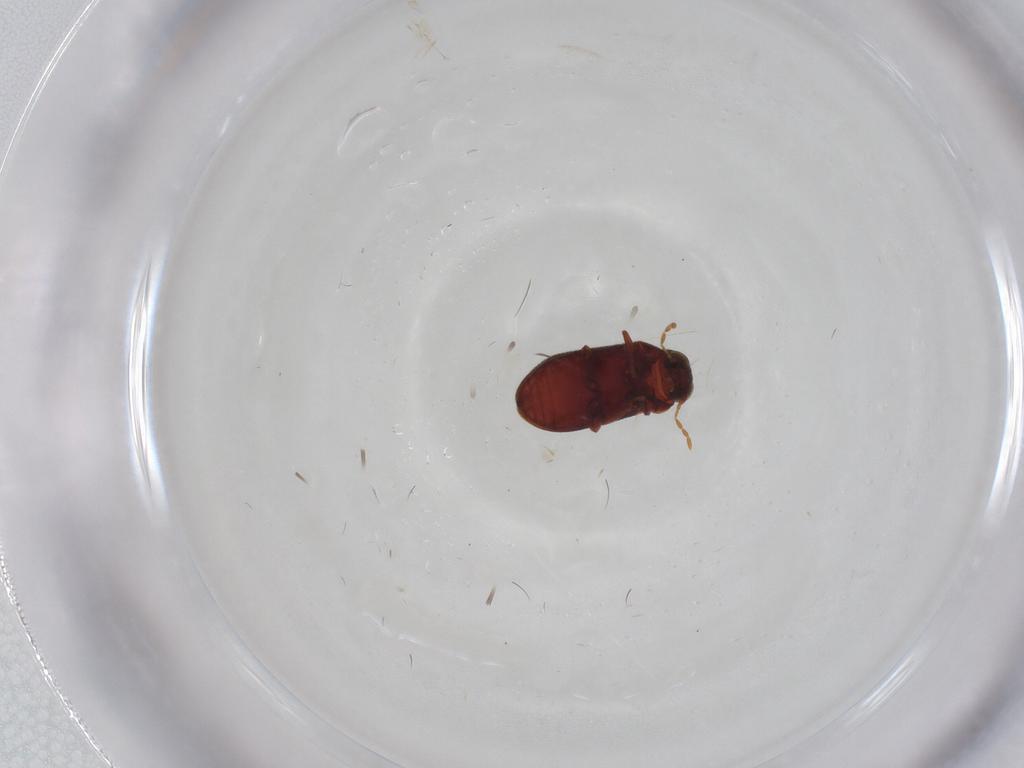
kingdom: Animalia
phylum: Arthropoda
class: Insecta
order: Coleoptera
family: Ptinidae
